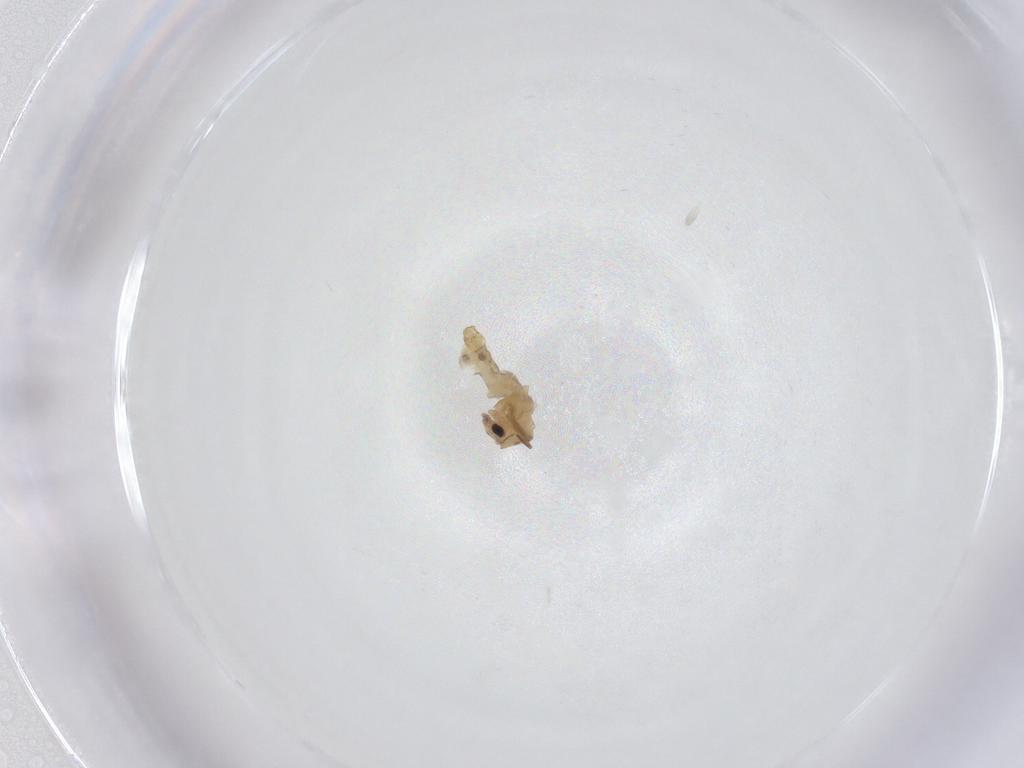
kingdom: Animalia
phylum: Arthropoda
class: Insecta
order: Diptera
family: Chironomidae
